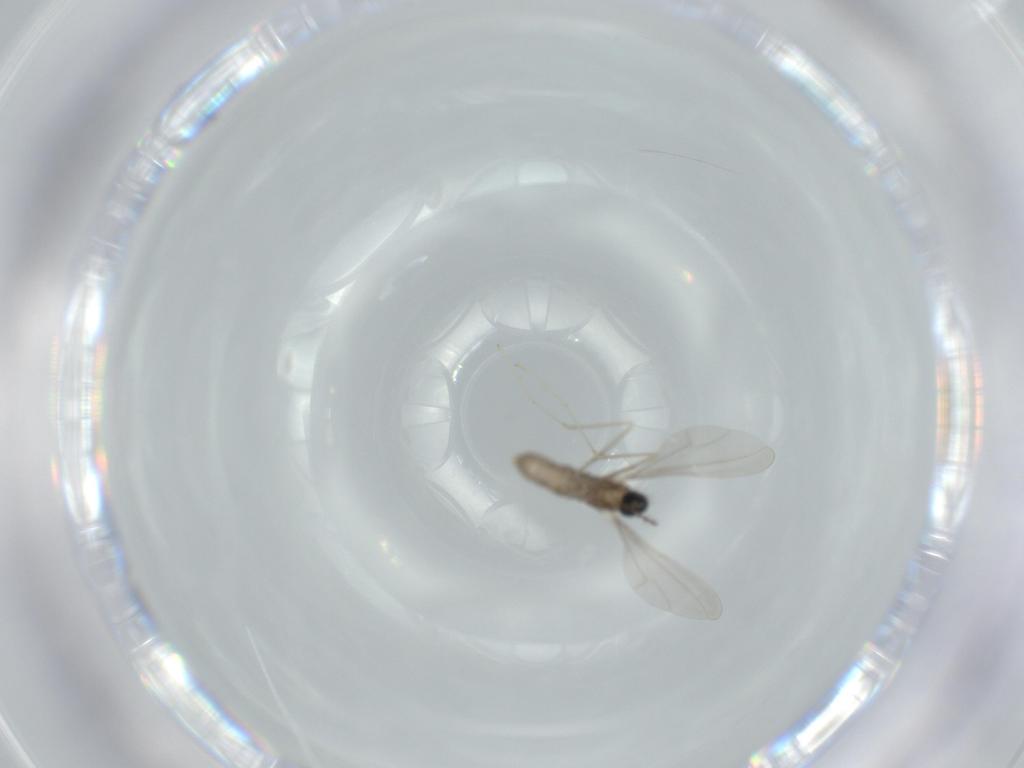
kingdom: Animalia
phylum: Arthropoda
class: Insecta
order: Diptera
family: Cecidomyiidae
